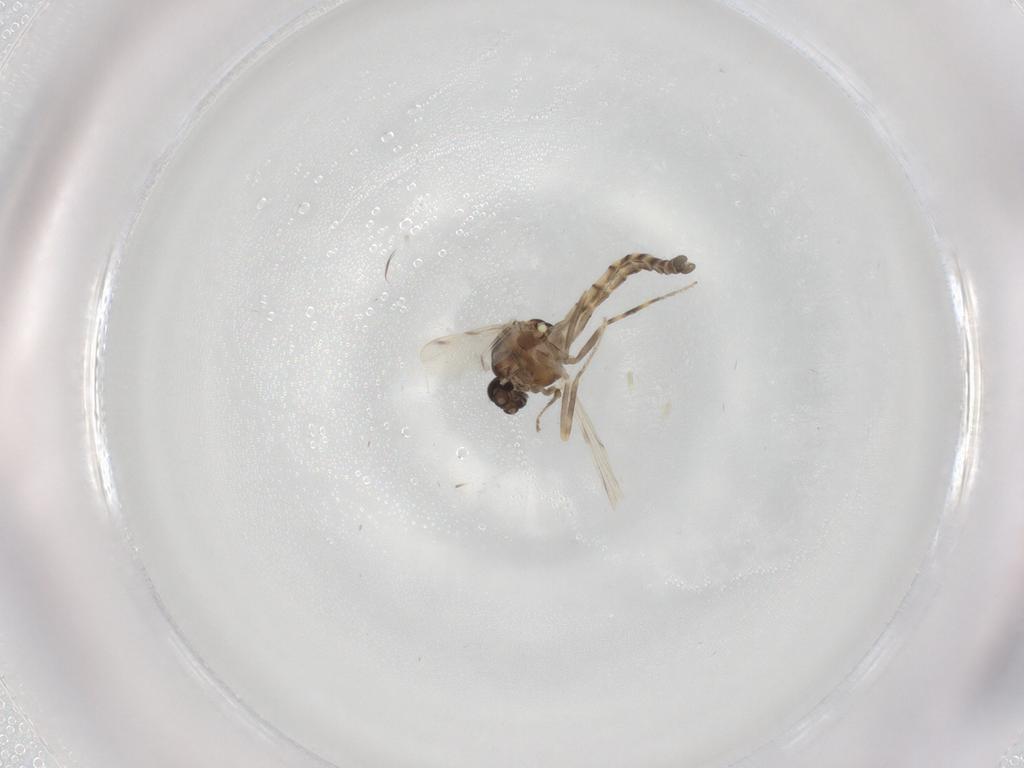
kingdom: Animalia
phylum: Arthropoda
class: Insecta
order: Diptera
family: Ceratopogonidae
